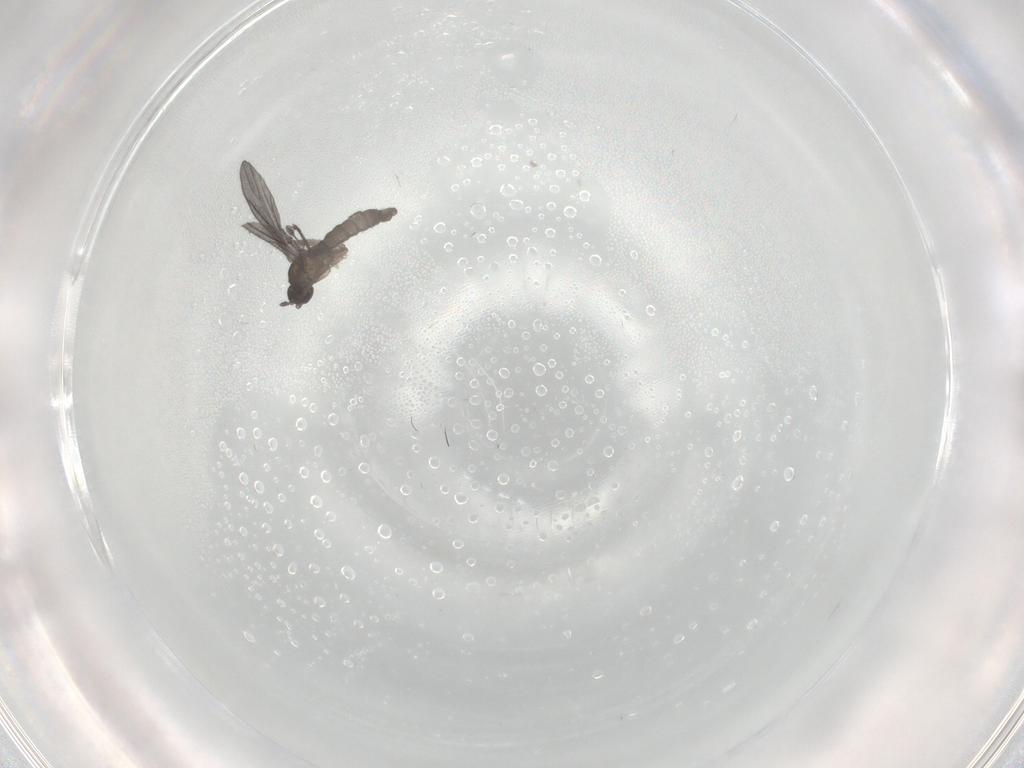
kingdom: Animalia
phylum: Arthropoda
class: Insecta
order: Diptera
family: Sciaridae
